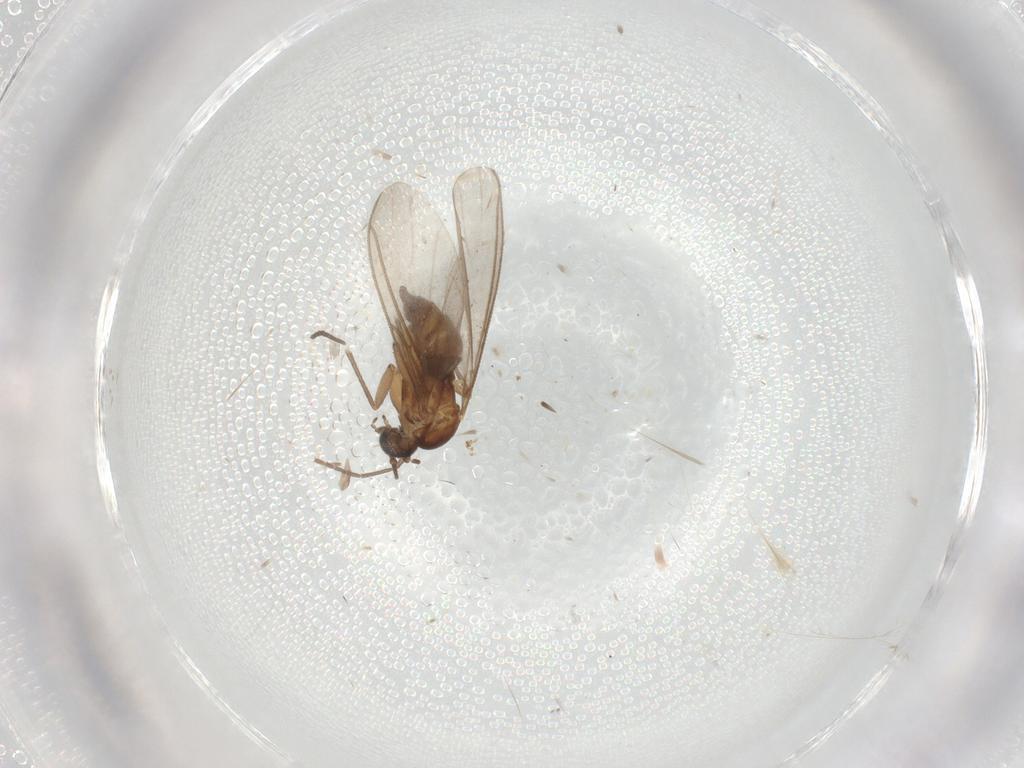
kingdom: Animalia
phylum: Arthropoda
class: Insecta
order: Diptera
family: Sciaridae
